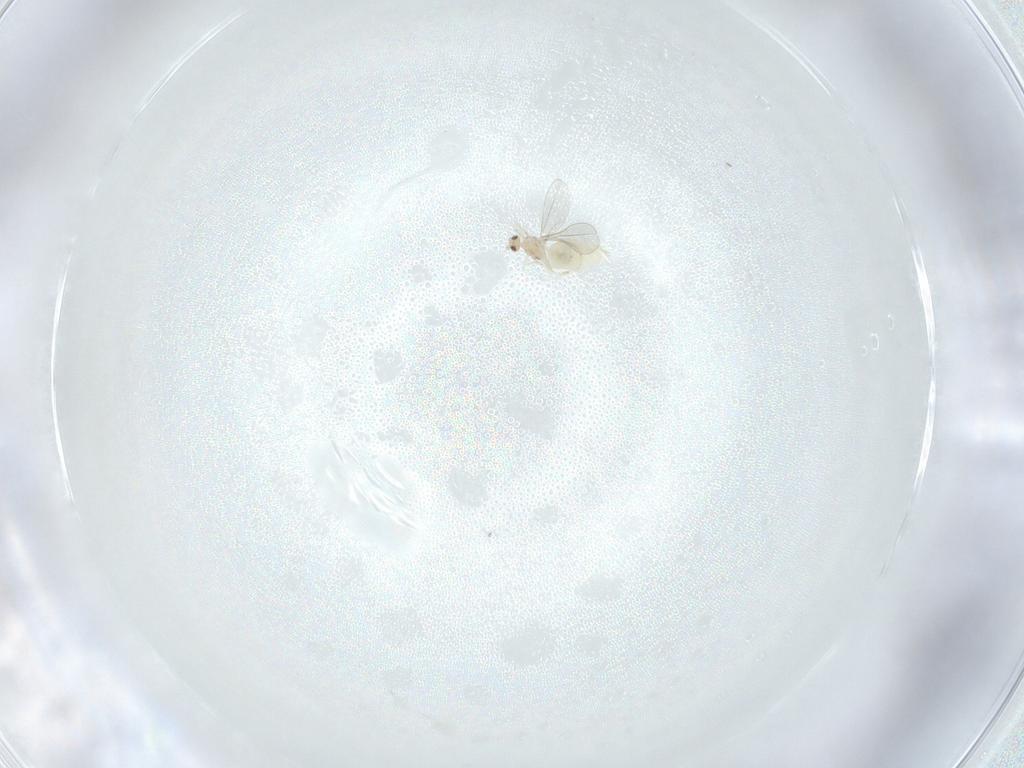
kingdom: Animalia
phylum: Arthropoda
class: Insecta
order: Diptera
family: Cecidomyiidae
